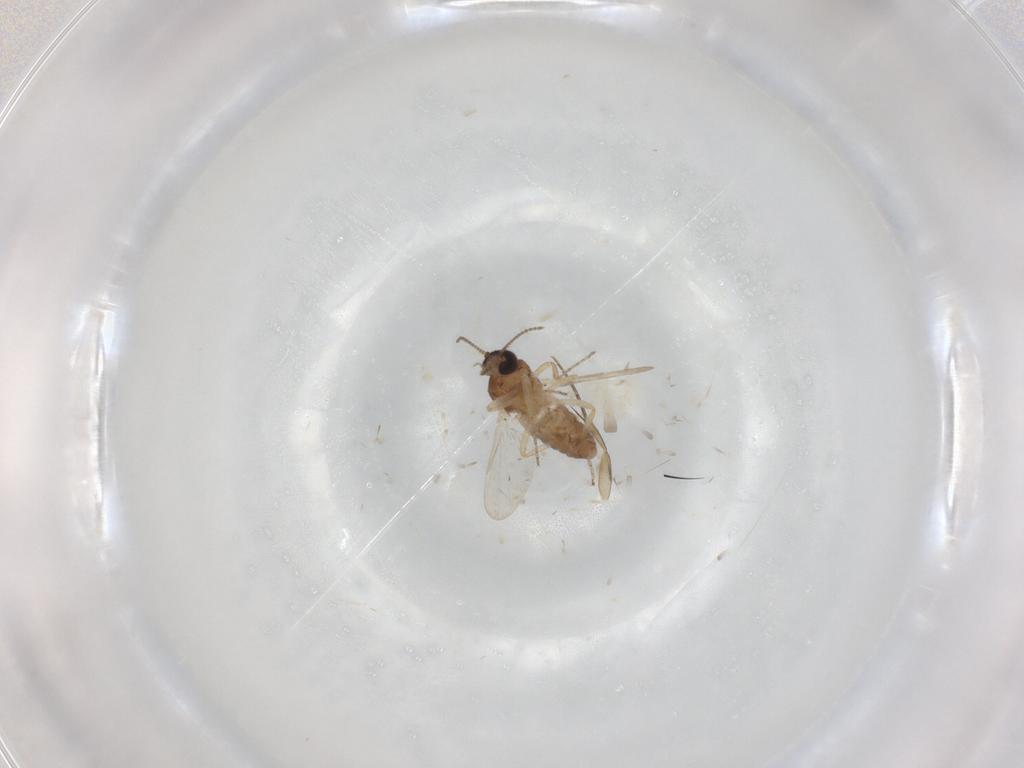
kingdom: Animalia
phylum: Arthropoda
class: Insecta
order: Diptera
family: Ceratopogonidae
